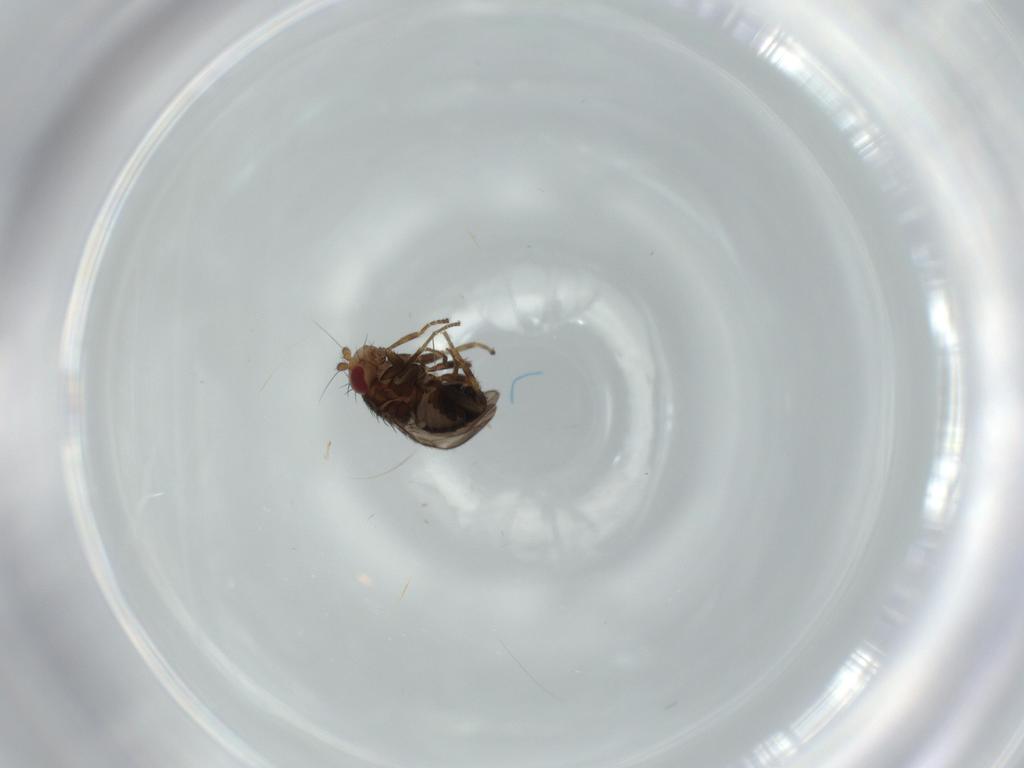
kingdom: Animalia
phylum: Arthropoda
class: Insecta
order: Diptera
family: Cecidomyiidae
